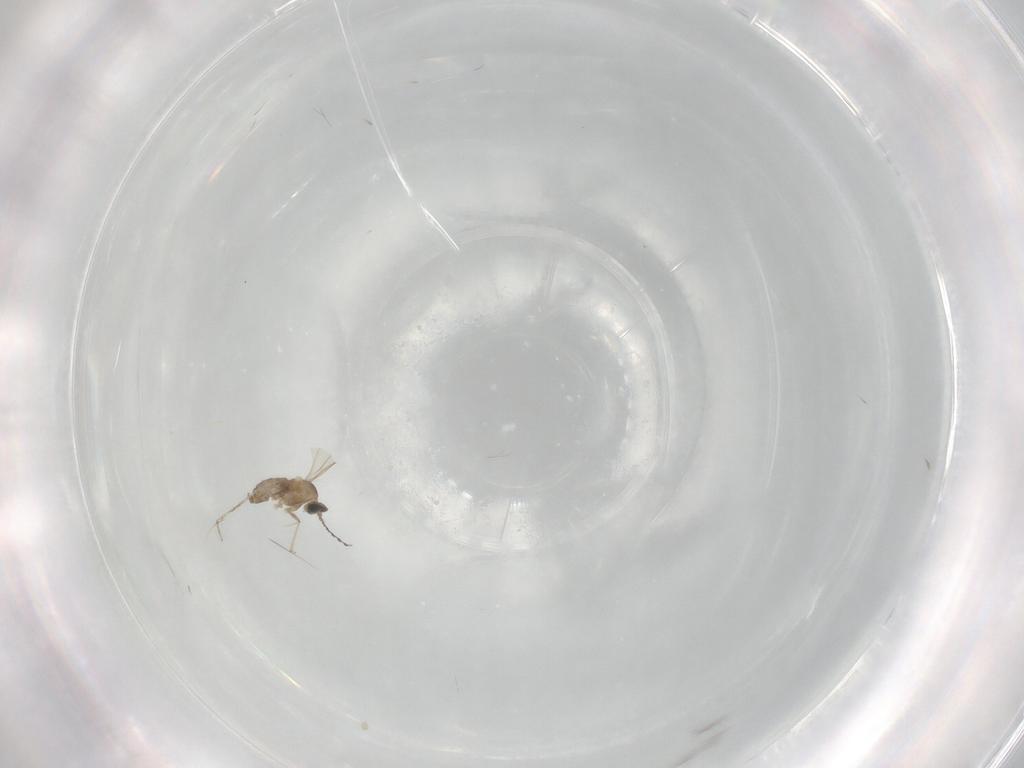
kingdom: Animalia
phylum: Arthropoda
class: Insecta
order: Diptera
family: Cecidomyiidae
